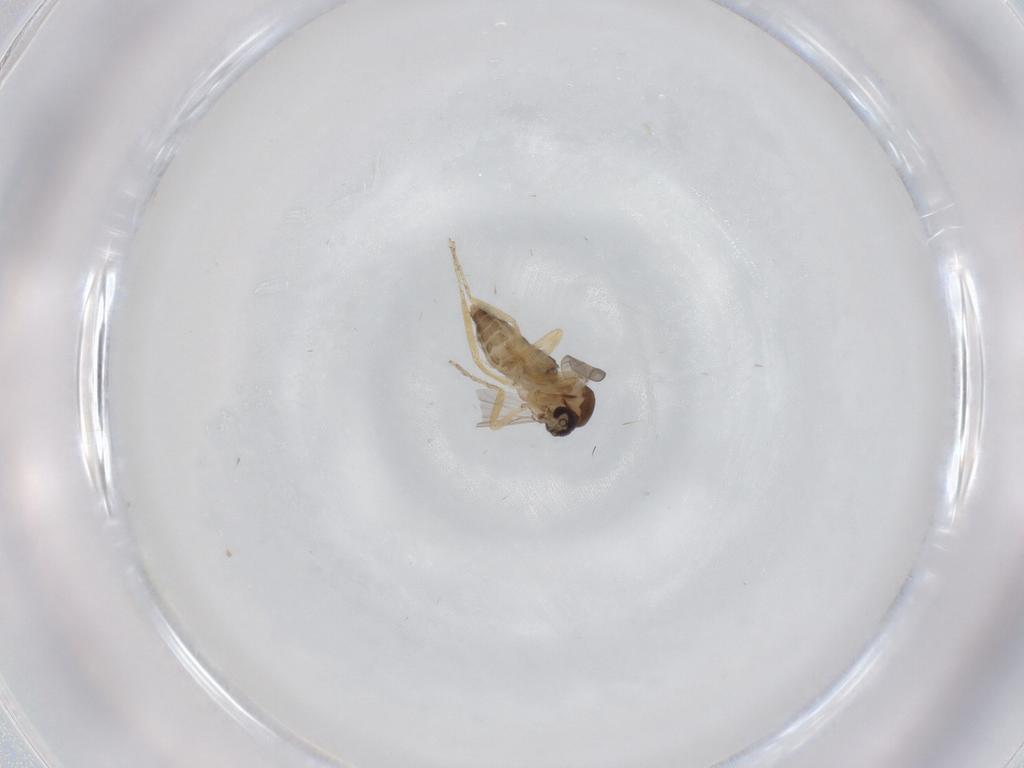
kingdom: Animalia
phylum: Arthropoda
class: Insecta
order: Diptera
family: Ceratopogonidae
